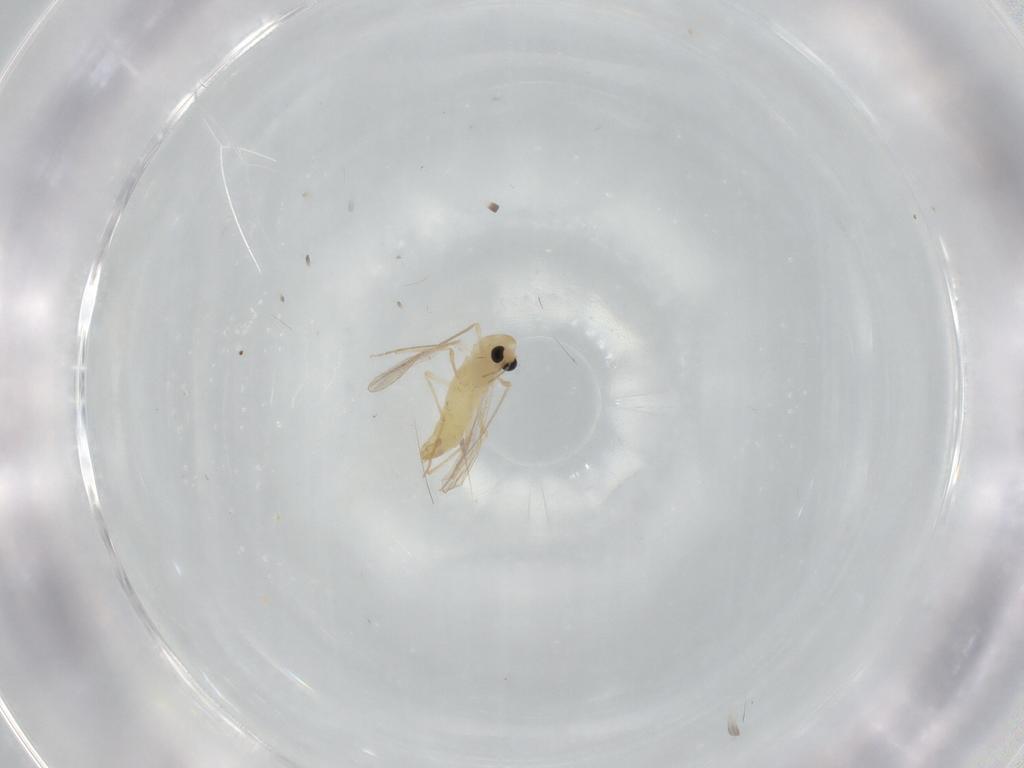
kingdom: Animalia
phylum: Arthropoda
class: Insecta
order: Diptera
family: Chironomidae
